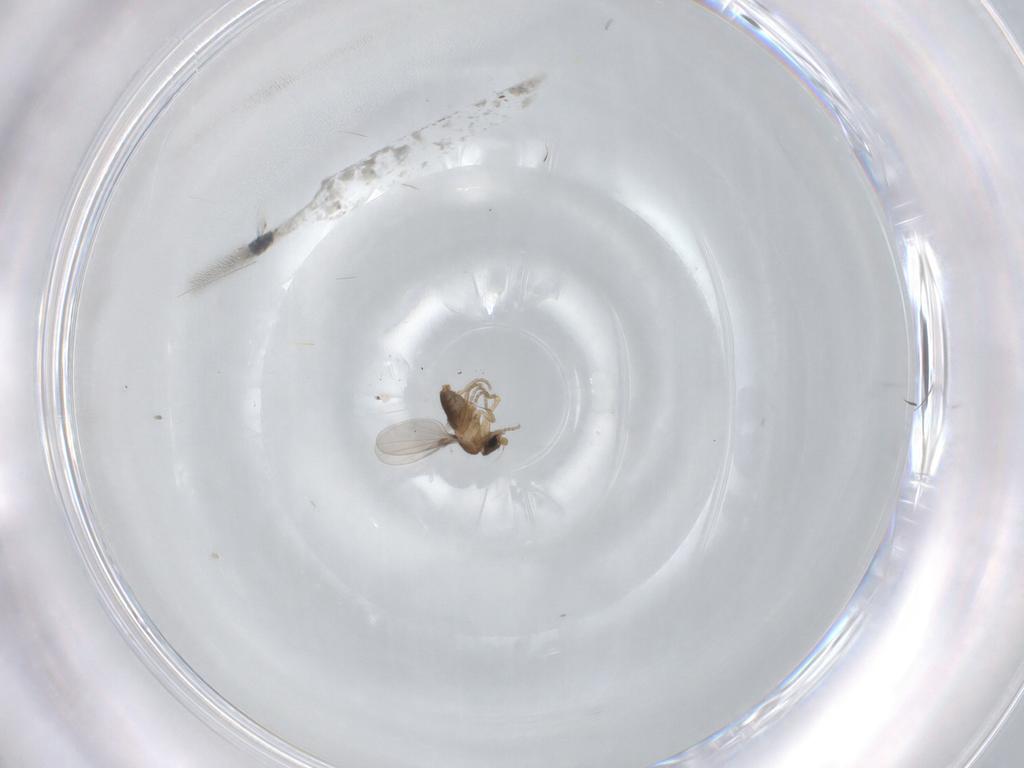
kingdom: Animalia
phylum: Arthropoda
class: Insecta
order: Diptera
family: Phoridae
